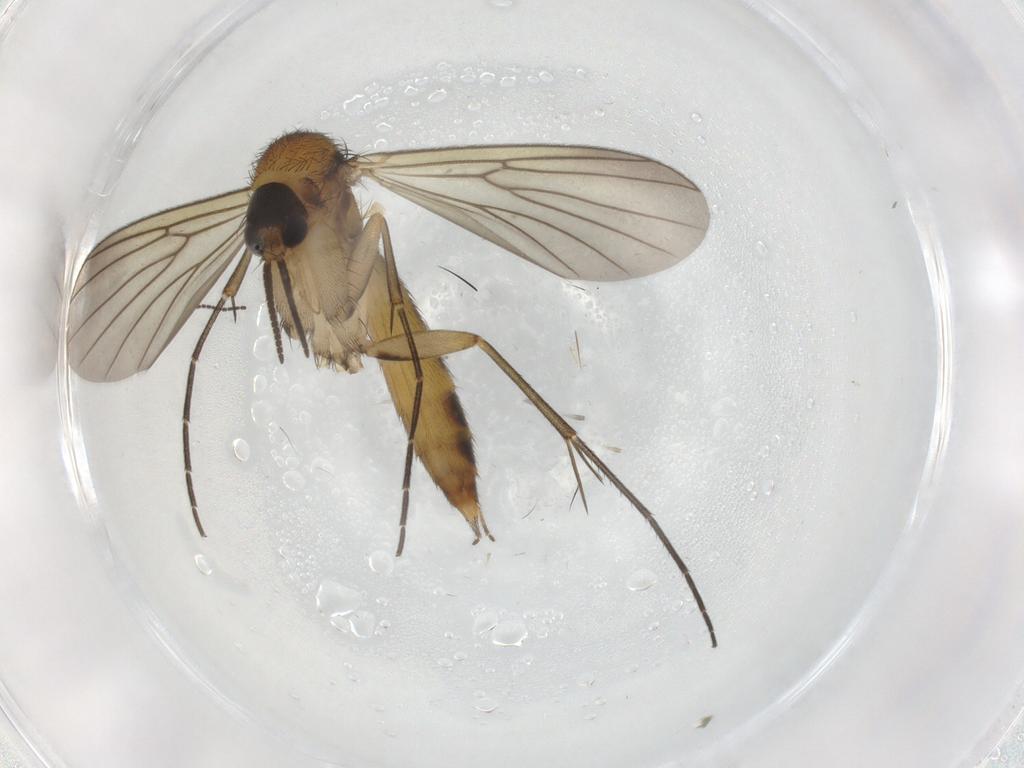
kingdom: Animalia
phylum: Arthropoda
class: Insecta
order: Diptera
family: Mycetophilidae
